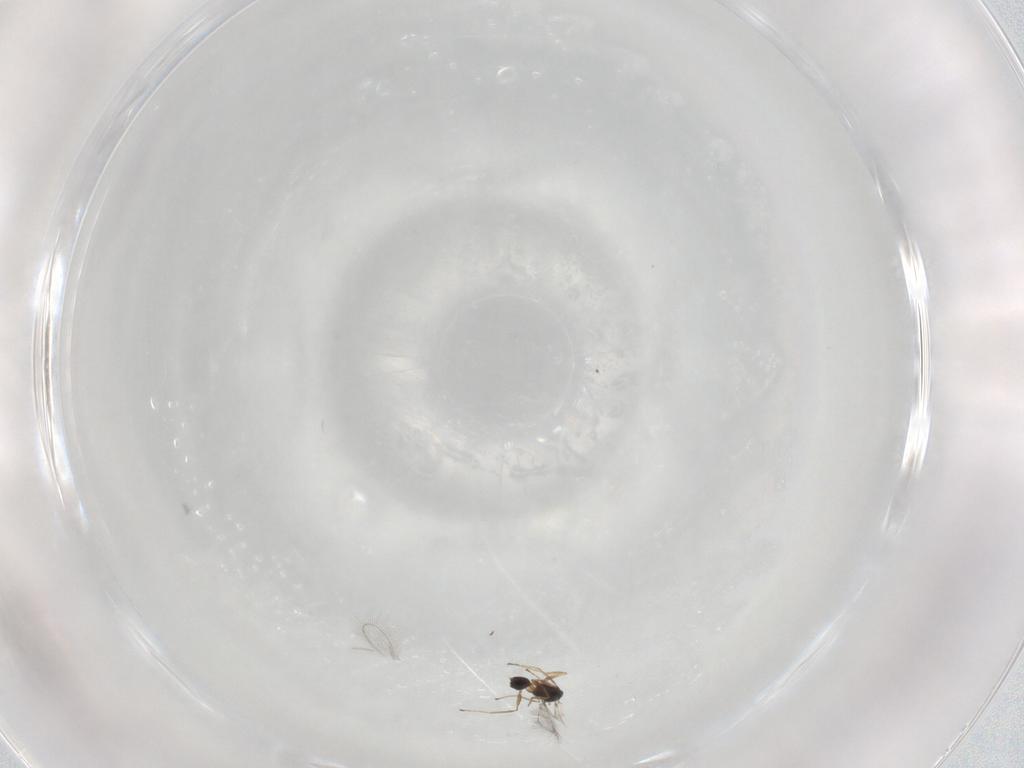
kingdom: Animalia
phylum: Arthropoda
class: Insecta
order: Hymenoptera
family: Mymaridae
